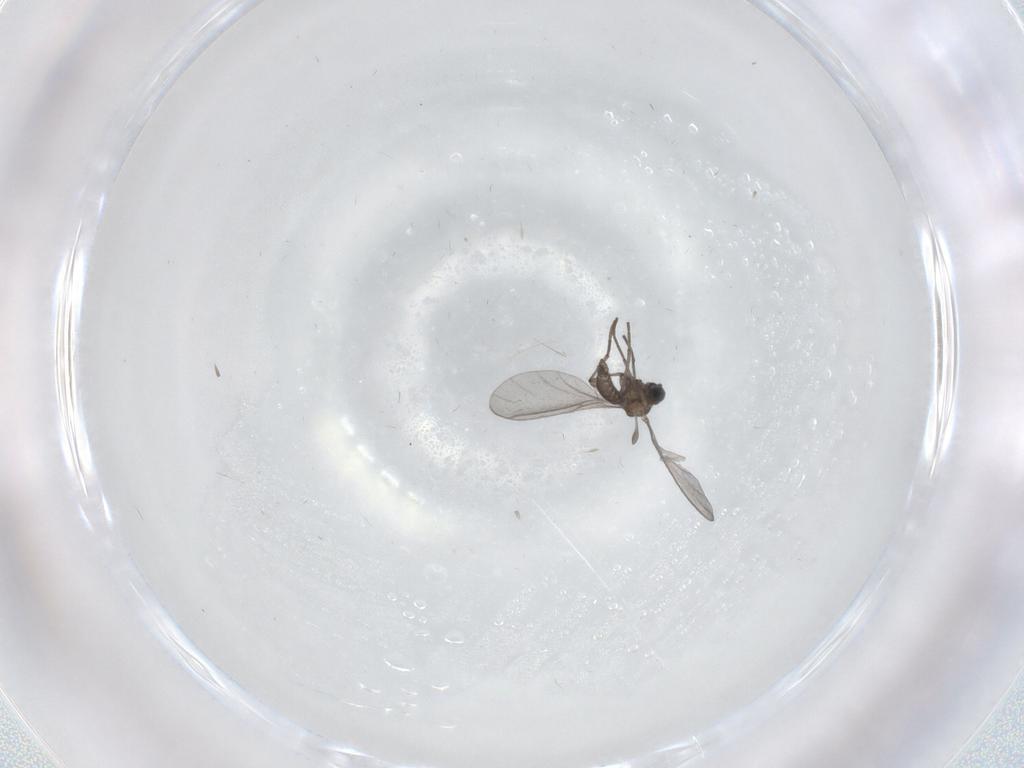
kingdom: Animalia
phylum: Arthropoda
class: Insecta
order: Diptera
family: Sciaridae
